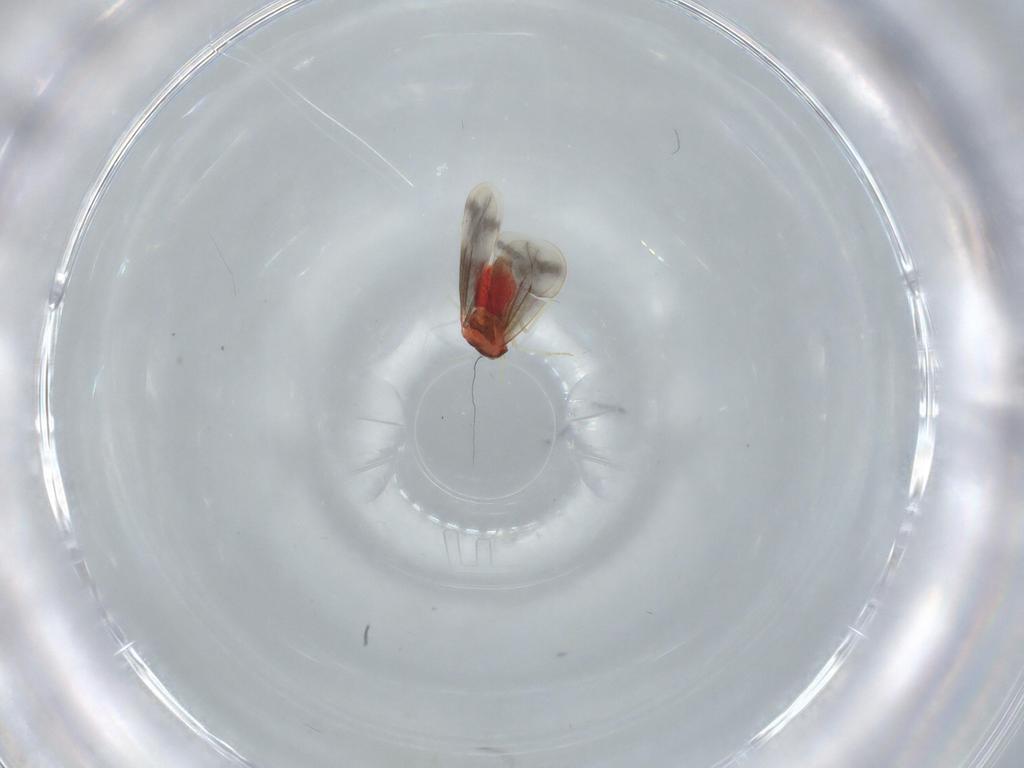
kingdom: Animalia
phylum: Arthropoda
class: Insecta
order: Hemiptera
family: Aleyrodidae
